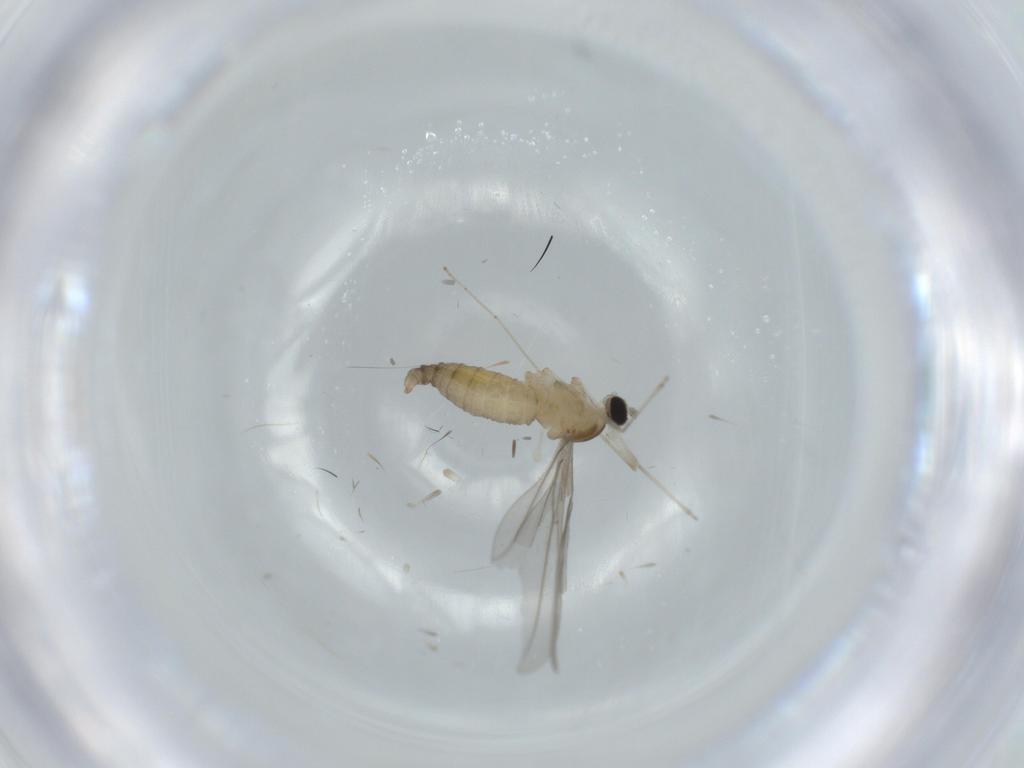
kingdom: Animalia
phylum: Arthropoda
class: Insecta
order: Diptera
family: Cecidomyiidae
